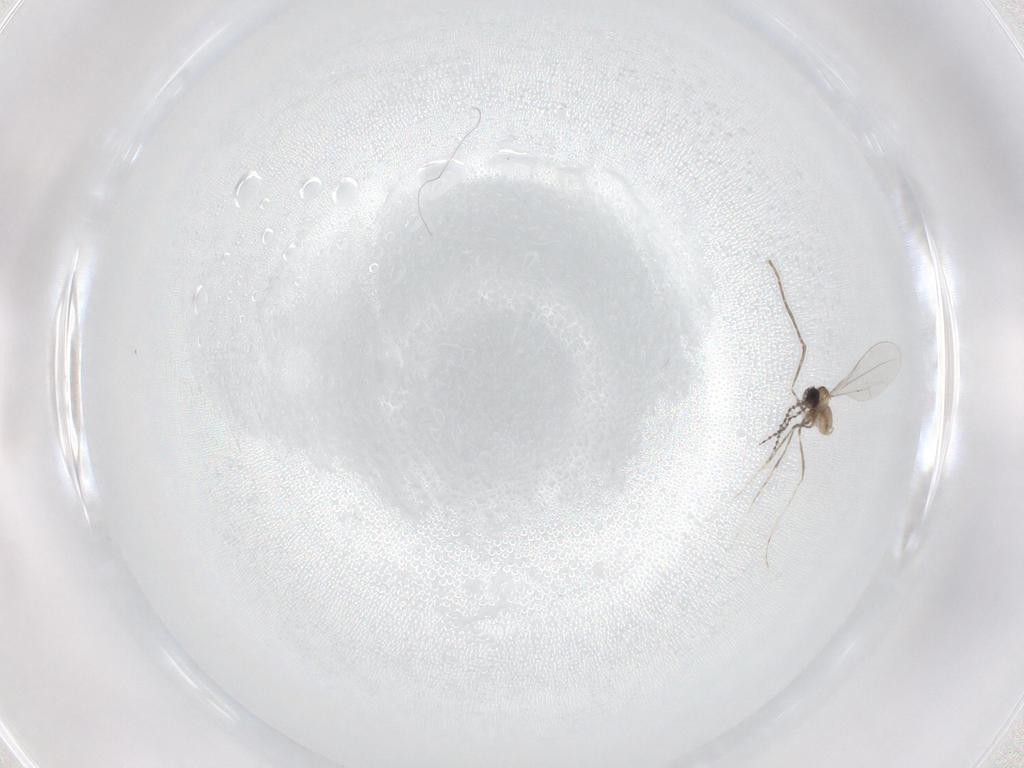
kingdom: Animalia
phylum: Arthropoda
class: Insecta
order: Diptera
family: Cecidomyiidae
